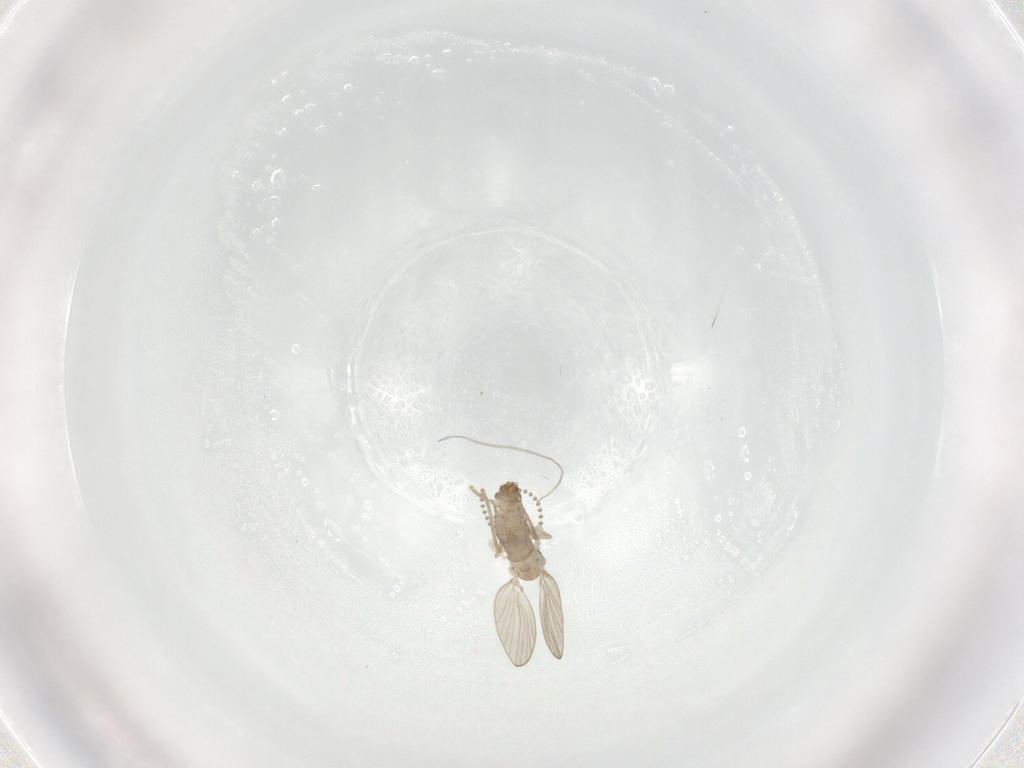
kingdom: Animalia
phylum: Arthropoda
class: Insecta
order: Diptera
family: Psychodidae
